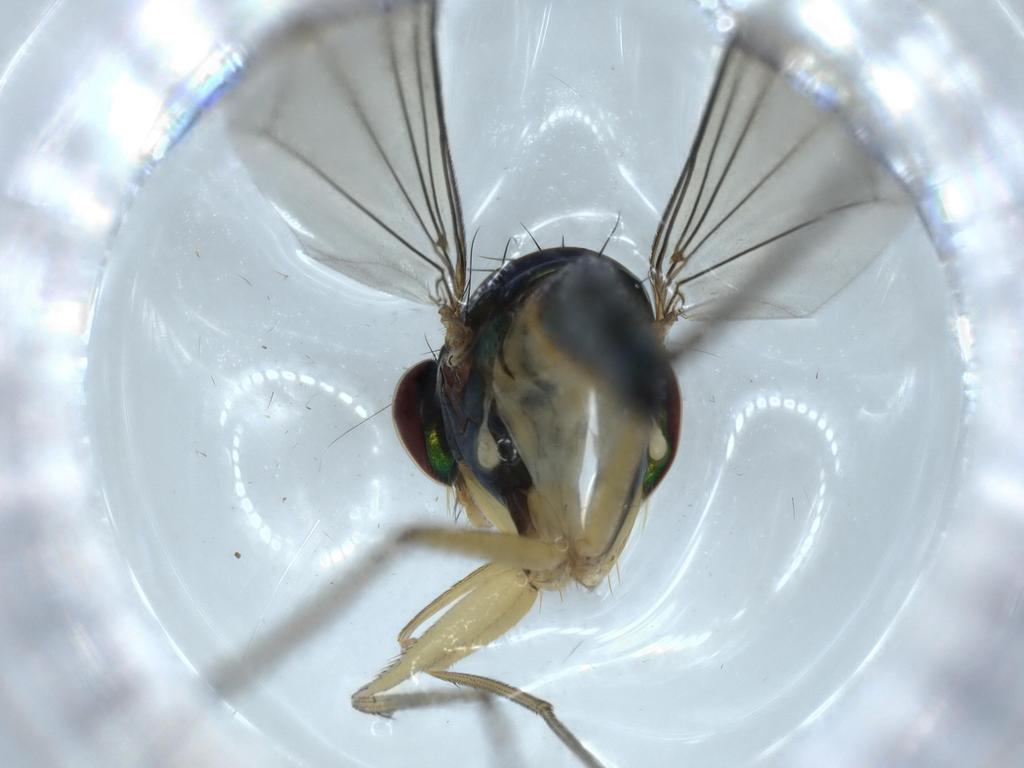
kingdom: Animalia
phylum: Arthropoda
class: Insecta
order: Diptera
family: Dolichopodidae
